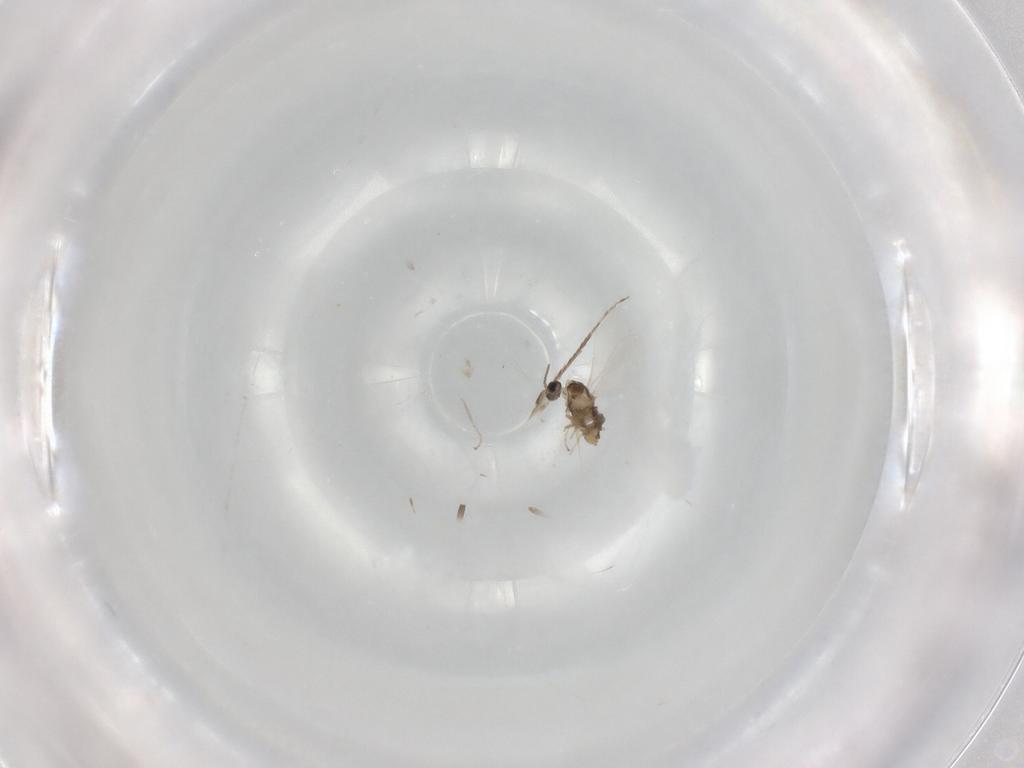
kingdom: Animalia
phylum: Arthropoda
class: Insecta
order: Diptera
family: Cecidomyiidae
